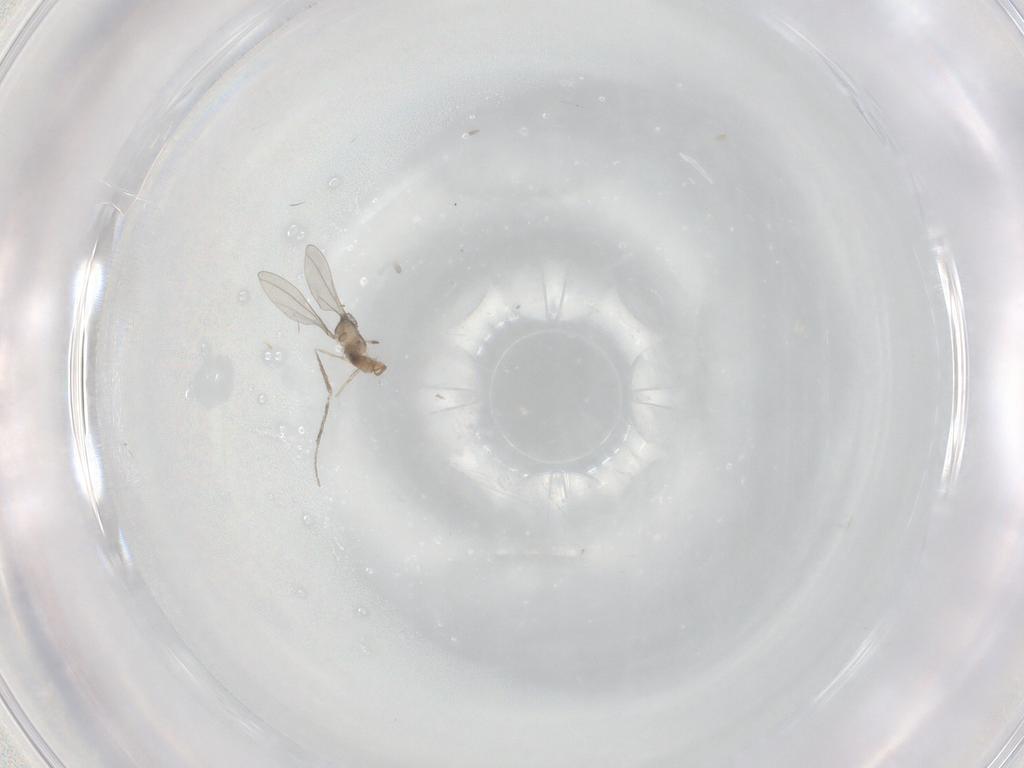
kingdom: Animalia
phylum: Arthropoda
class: Insecta
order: Diptera
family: Cecidomyiidae
